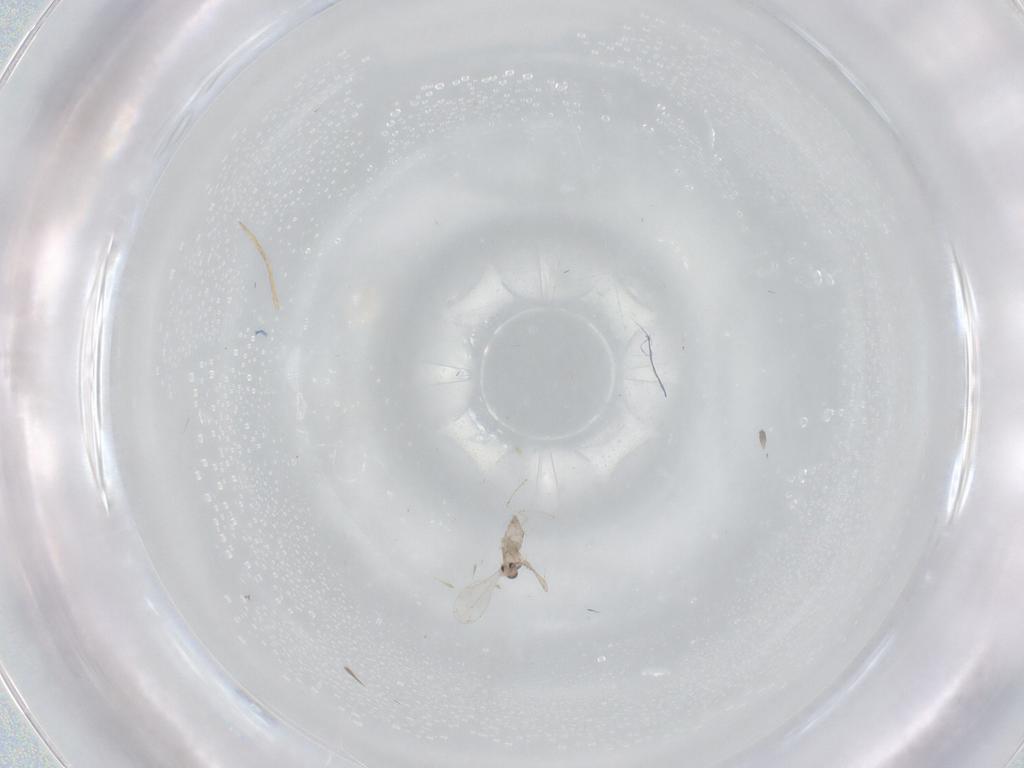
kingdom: Animalia
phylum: Arthropoda
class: Insecta
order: Diptera
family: Cecidomyiidae
